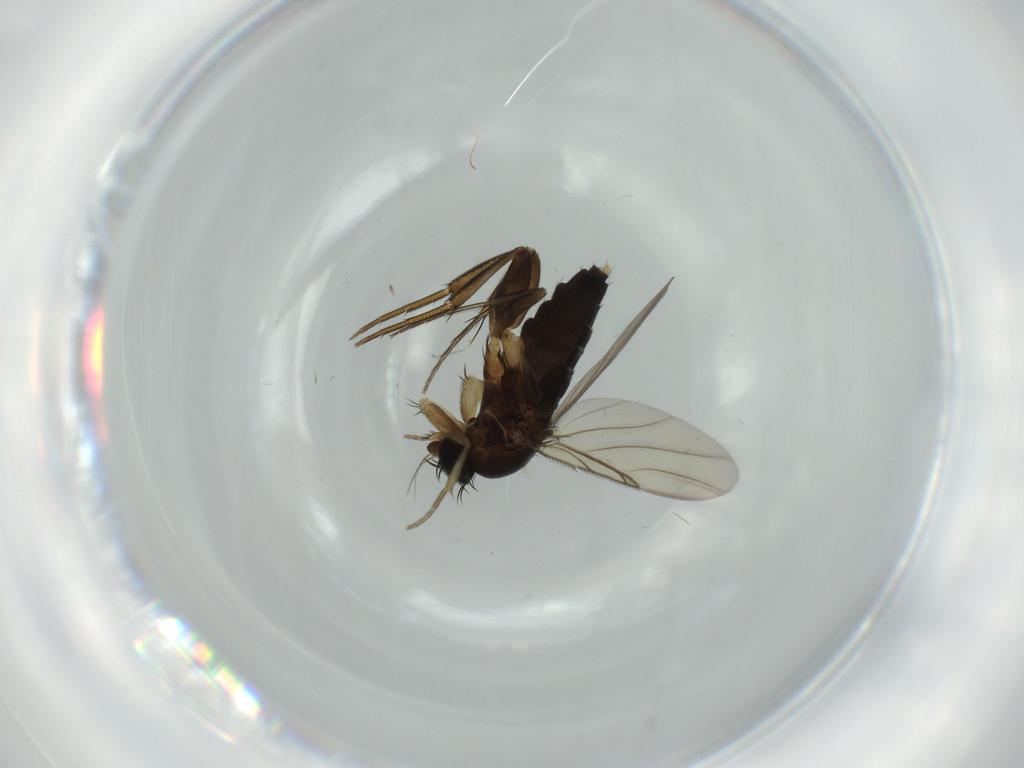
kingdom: Animalia
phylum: Arthropoda
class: Insecta
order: Diptera
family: Phoridae
